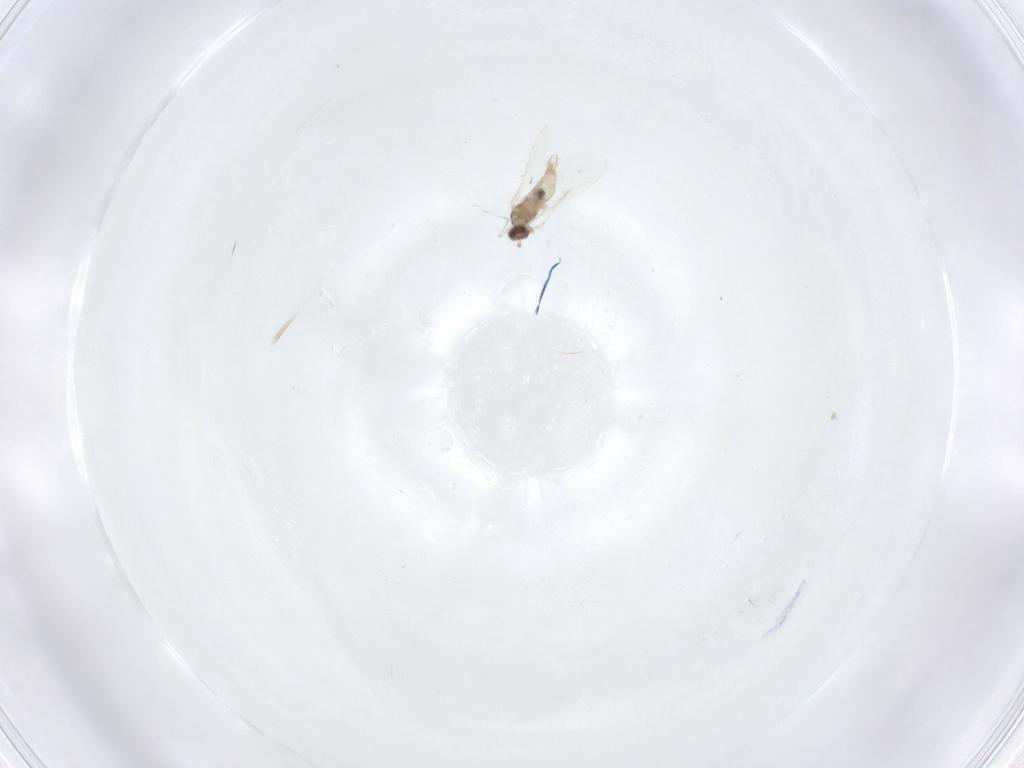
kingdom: Animalia
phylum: Arthropoda
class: Insecta
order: Diptera
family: Cecidomyiidae
